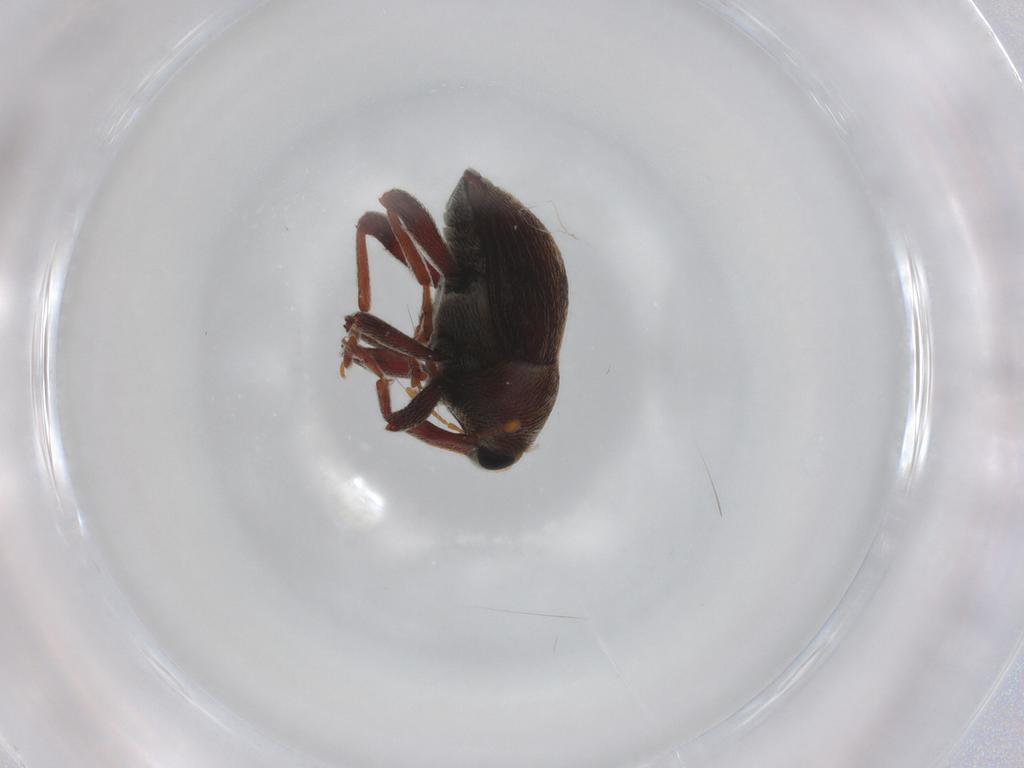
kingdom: Animalia
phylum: Arthropoda
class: Insecta
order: Coleoptera
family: Curculionidae
